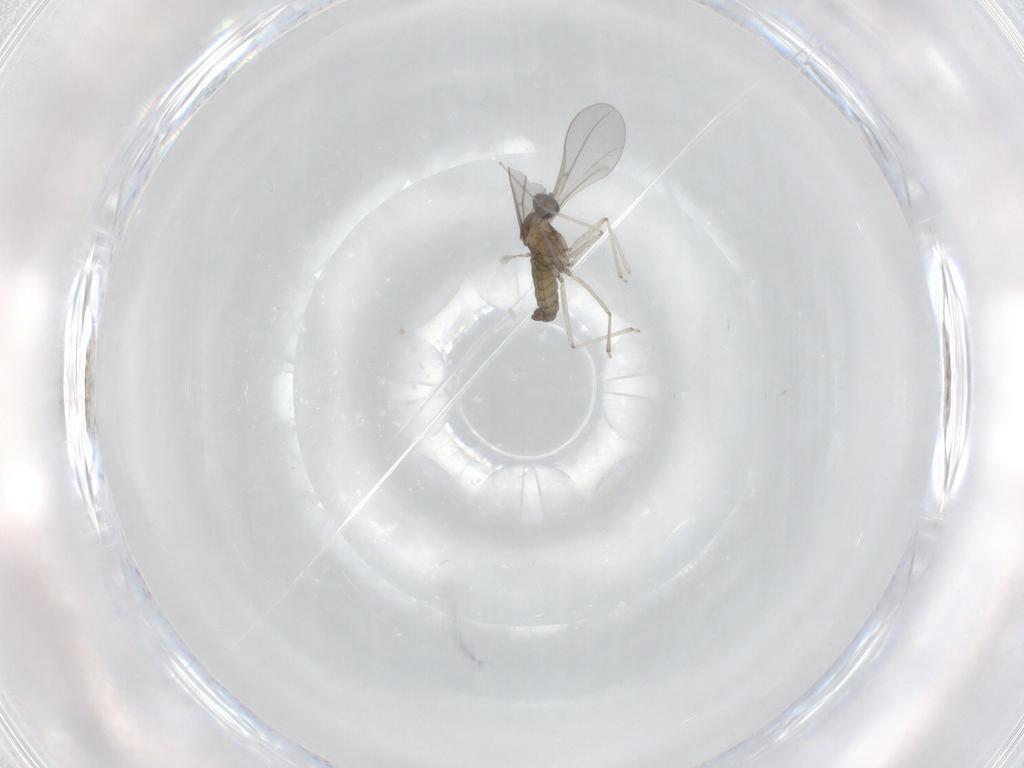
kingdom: Animalia
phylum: Arthropoda
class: Insecta
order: Diptera
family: Cecidomyiidae
